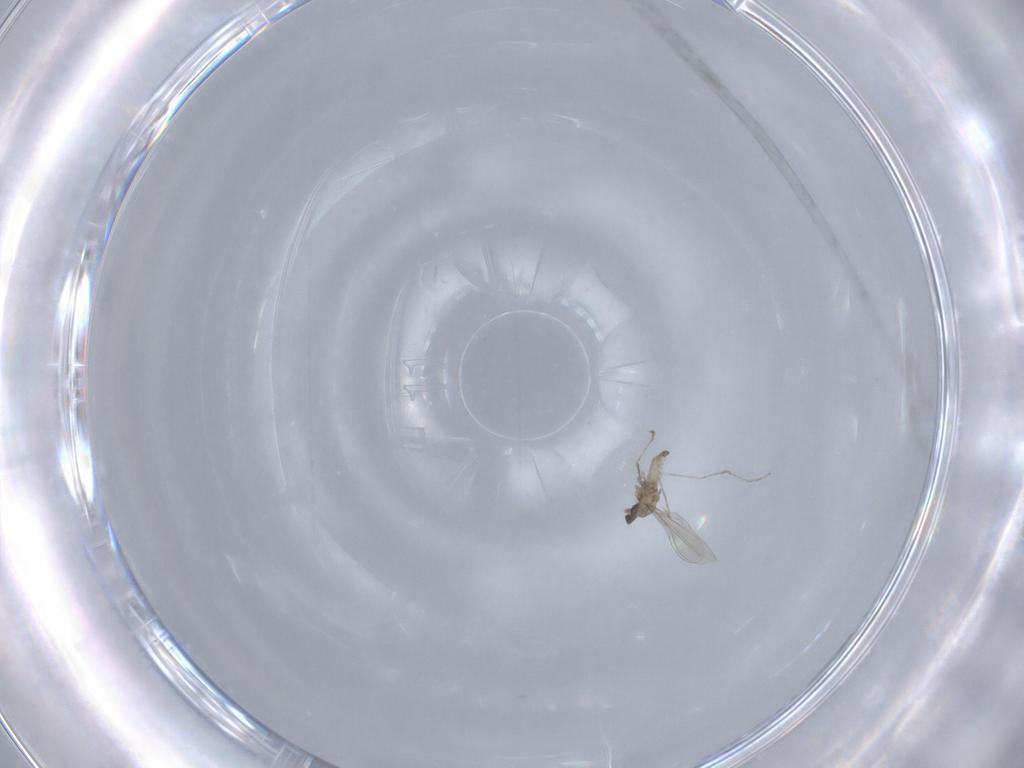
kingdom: Animalia
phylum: Arthropoda
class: Insecta
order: Diptera
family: Cecidomyiidae
